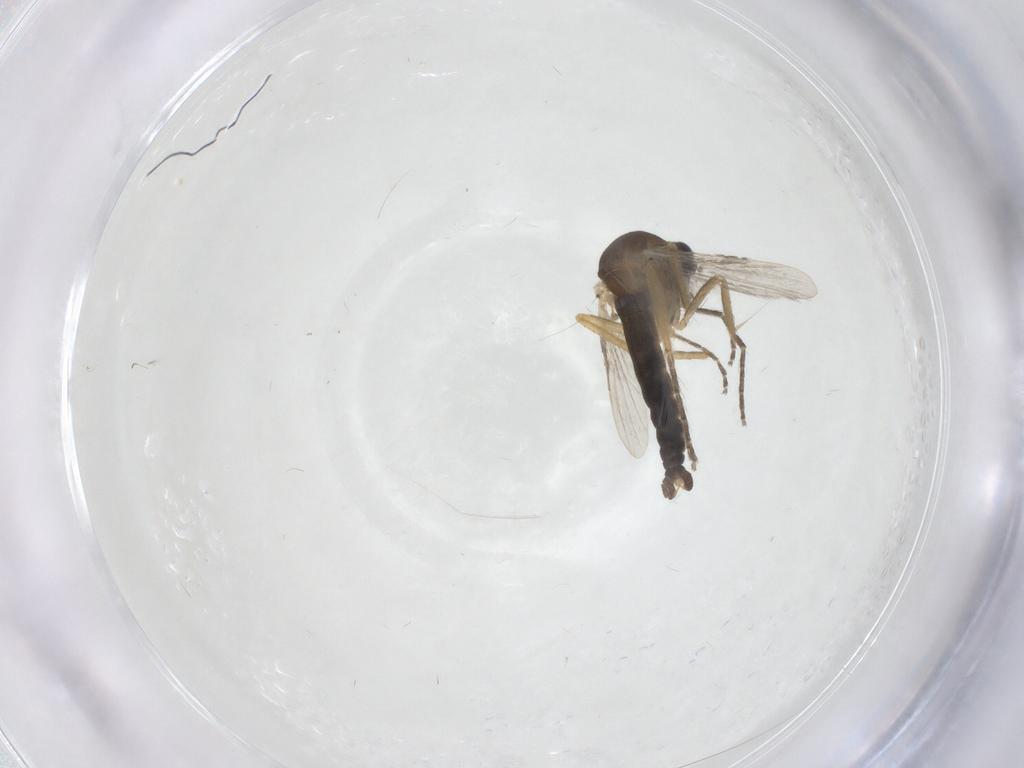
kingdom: Animalia
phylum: Arthropoda
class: Insecta
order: Diptera
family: Ceratopogonidae
